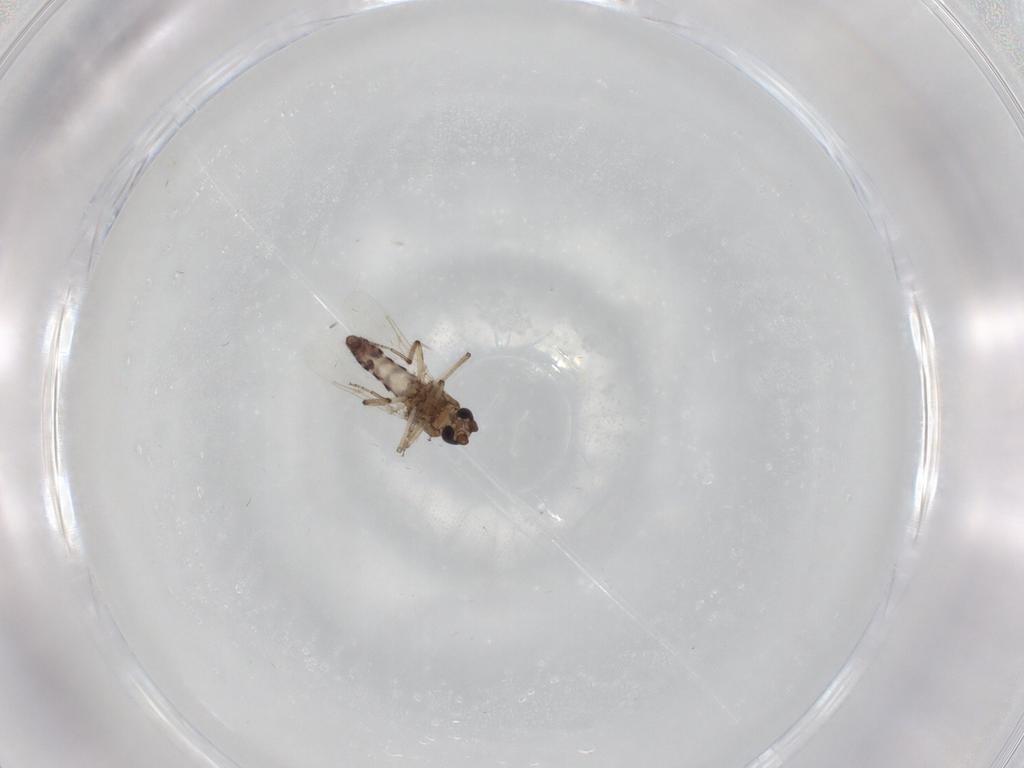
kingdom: Animalia
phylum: Arthropoda
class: Insecta
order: Diptera
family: Ceratopogonidae
